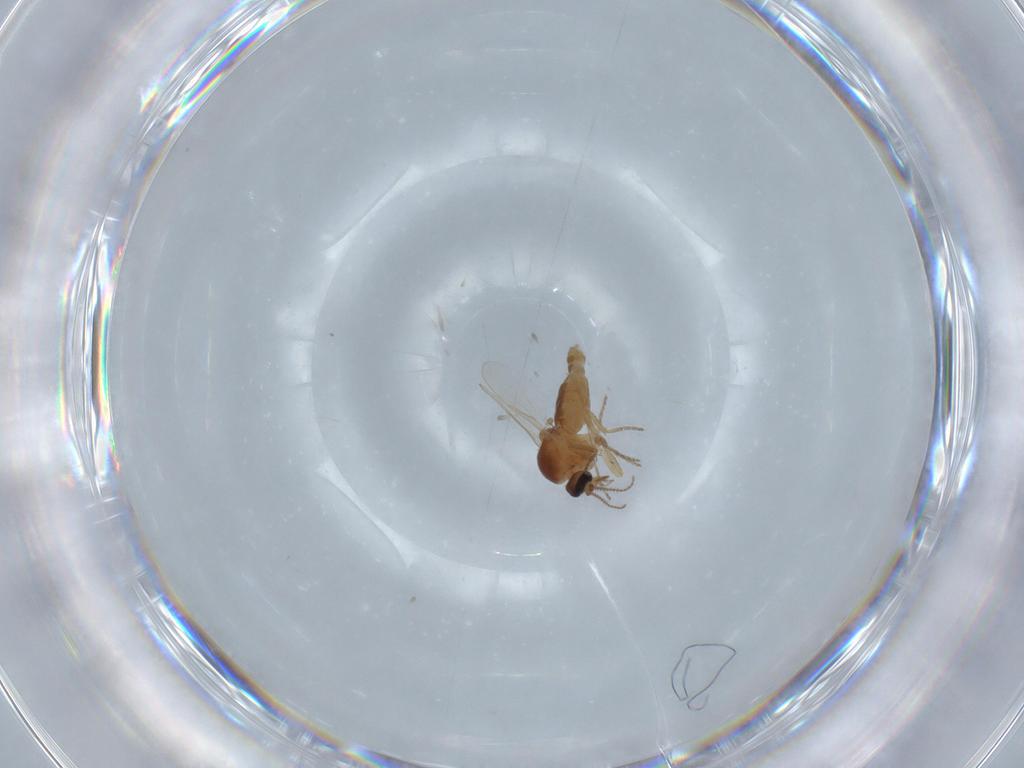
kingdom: Animalia
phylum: Arthropoda
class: Insecta
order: Diptera
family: Ceratopogonidae
